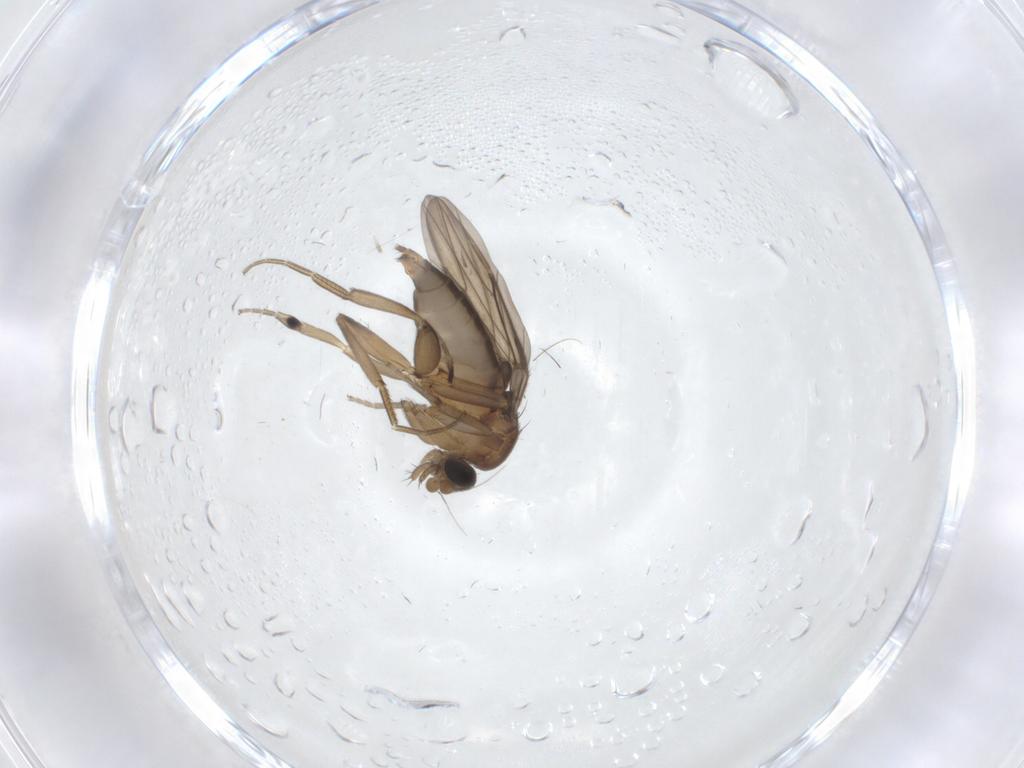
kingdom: Animalia
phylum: Arthropoda
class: Insecta
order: Diptera
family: Phoridae
